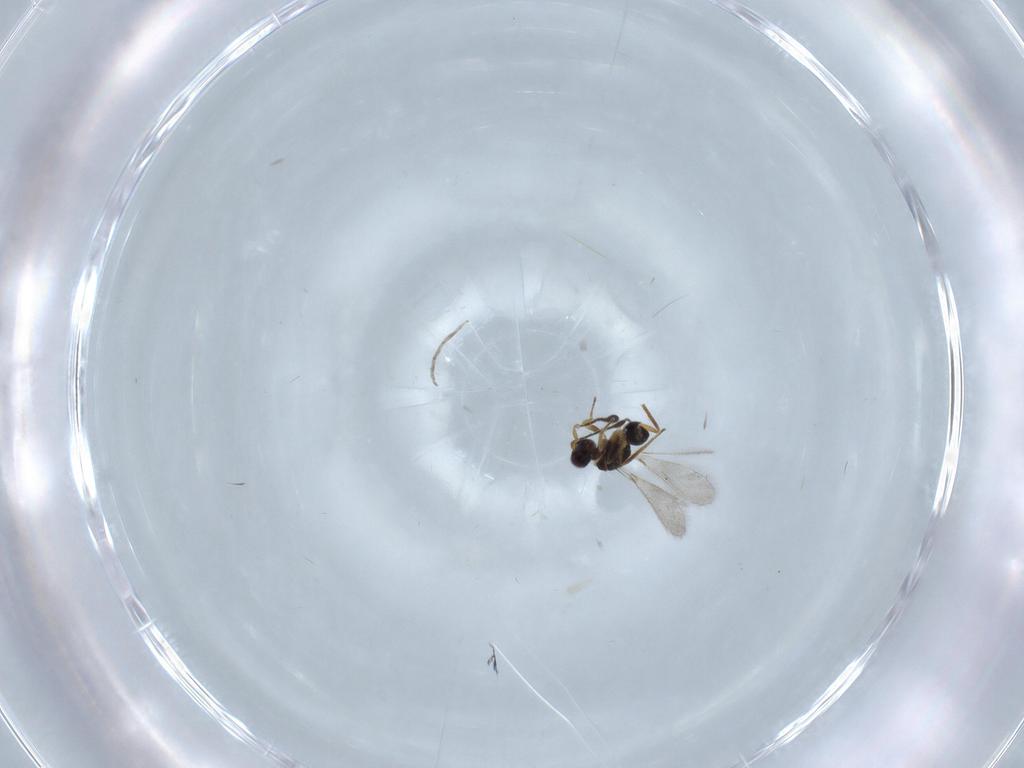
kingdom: Animalia
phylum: Arthropoda
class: Insecta
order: Hymenoptera
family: Mymaridae
